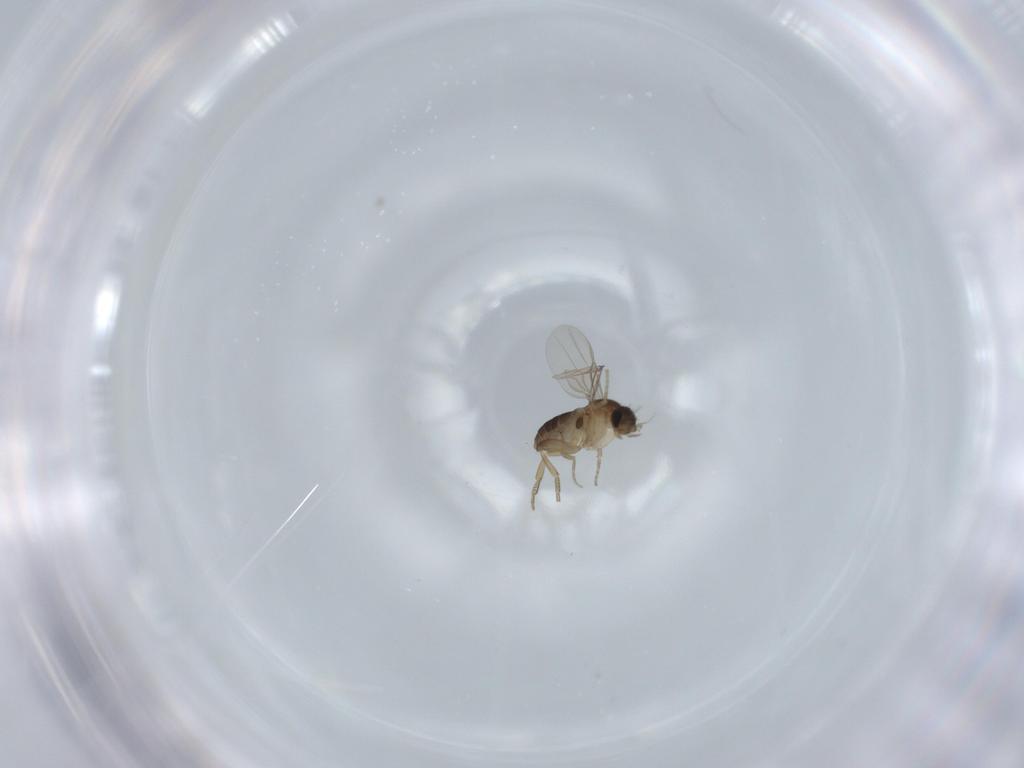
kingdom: Animalia
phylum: Arthropoda
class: Insecta
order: Diptera
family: Phoridae
